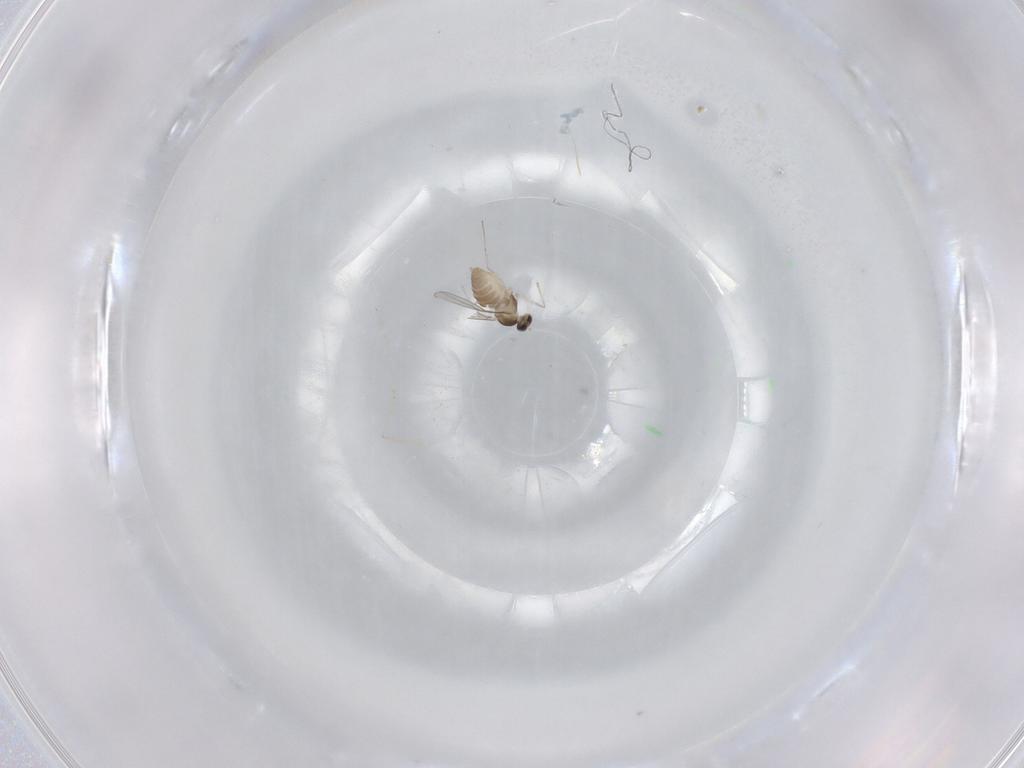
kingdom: Animalia
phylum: Arthropoda
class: Insecta
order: Diptera
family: Cecidomyiidae
